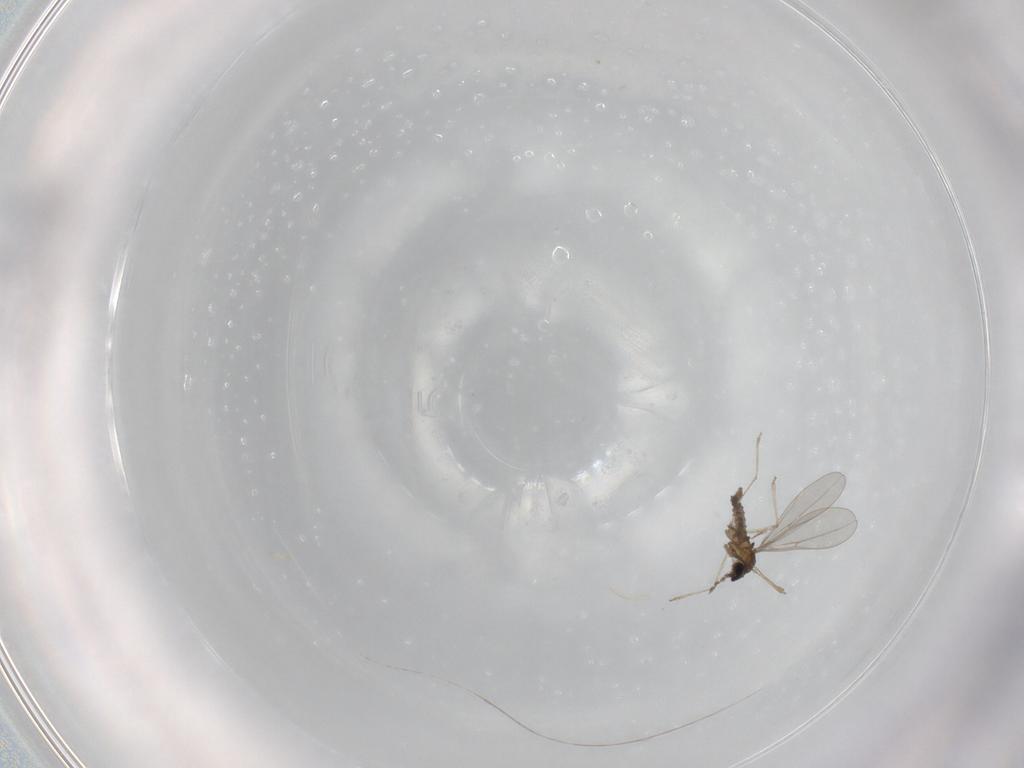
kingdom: Animalia
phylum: Arthropoda
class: Insecta
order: Diptera
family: Sciaridae
